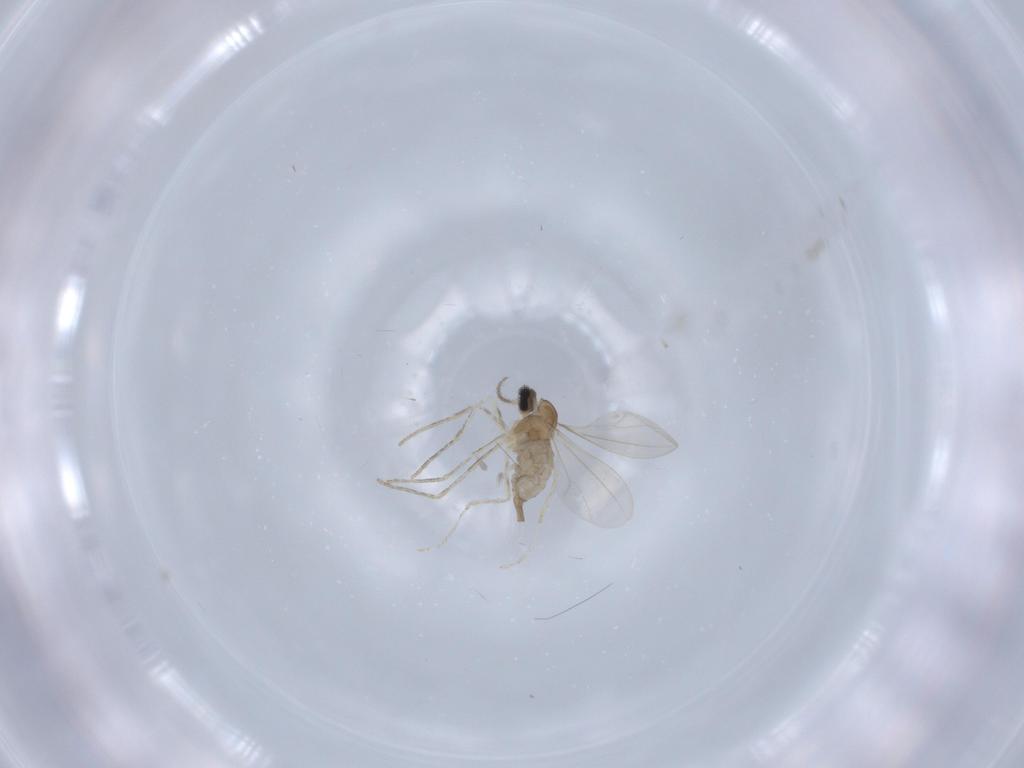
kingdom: Animalia
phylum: Arthropoda
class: Insecta
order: Diptera
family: Cecidomyiidae
